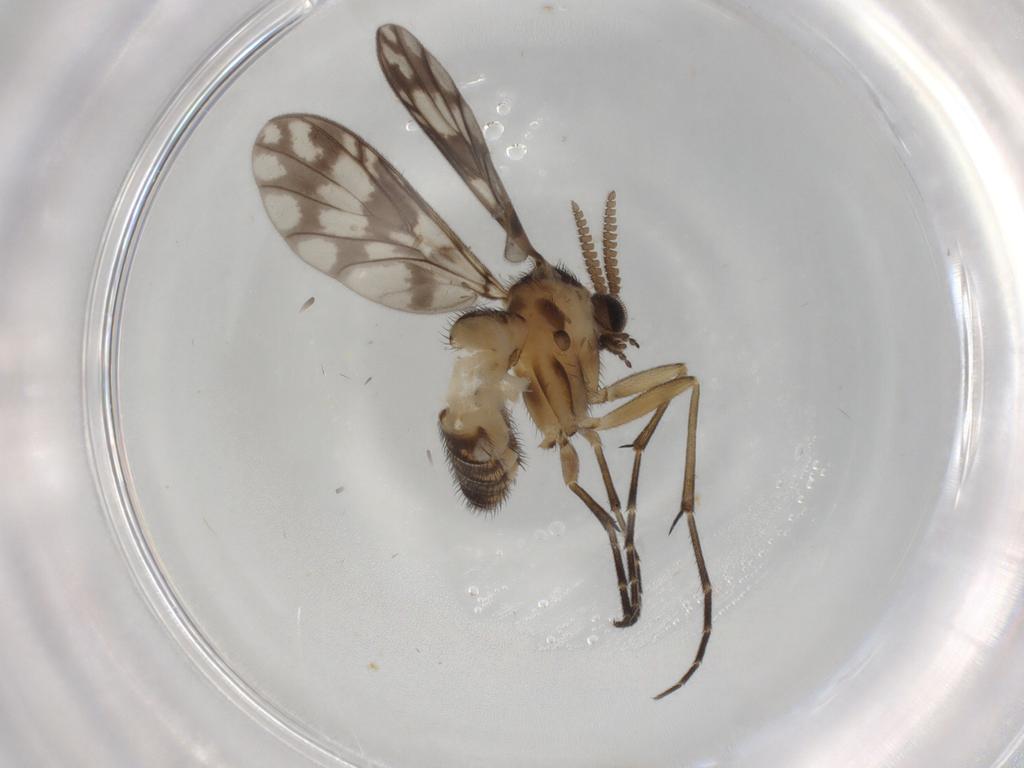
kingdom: Animalia
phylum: Arthropoda
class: Insecta
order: Diptera
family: Keroplatidae
